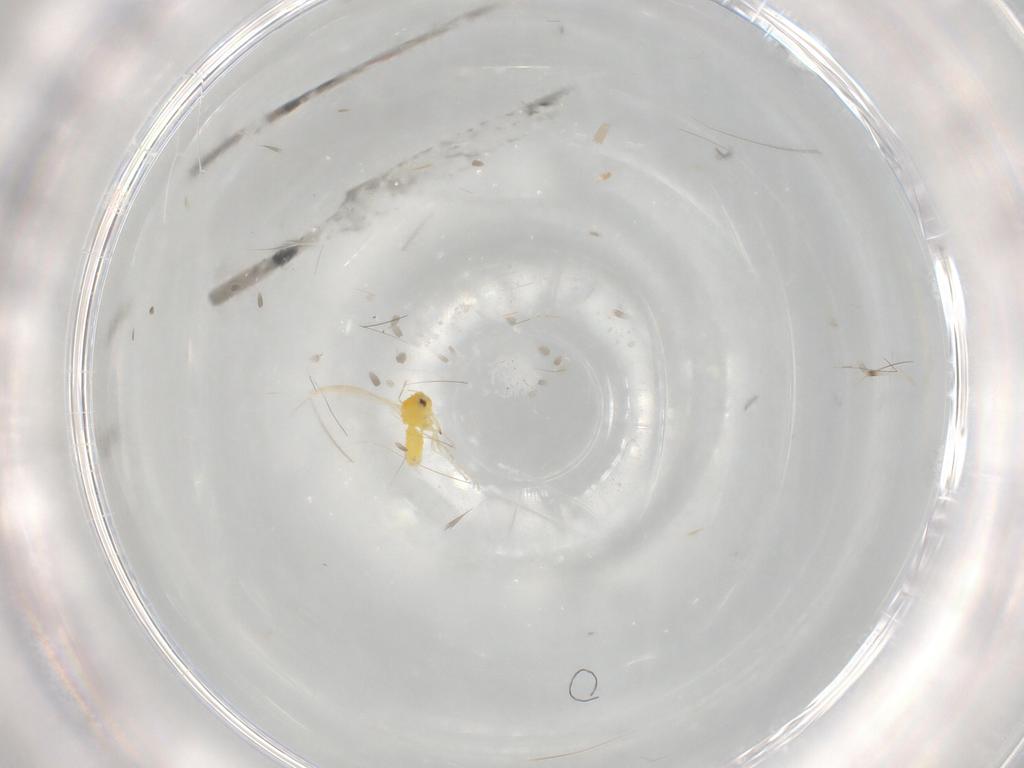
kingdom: Animalia
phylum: Arthropoda
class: Insecta
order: Hemiptera
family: Aleyrodidae
